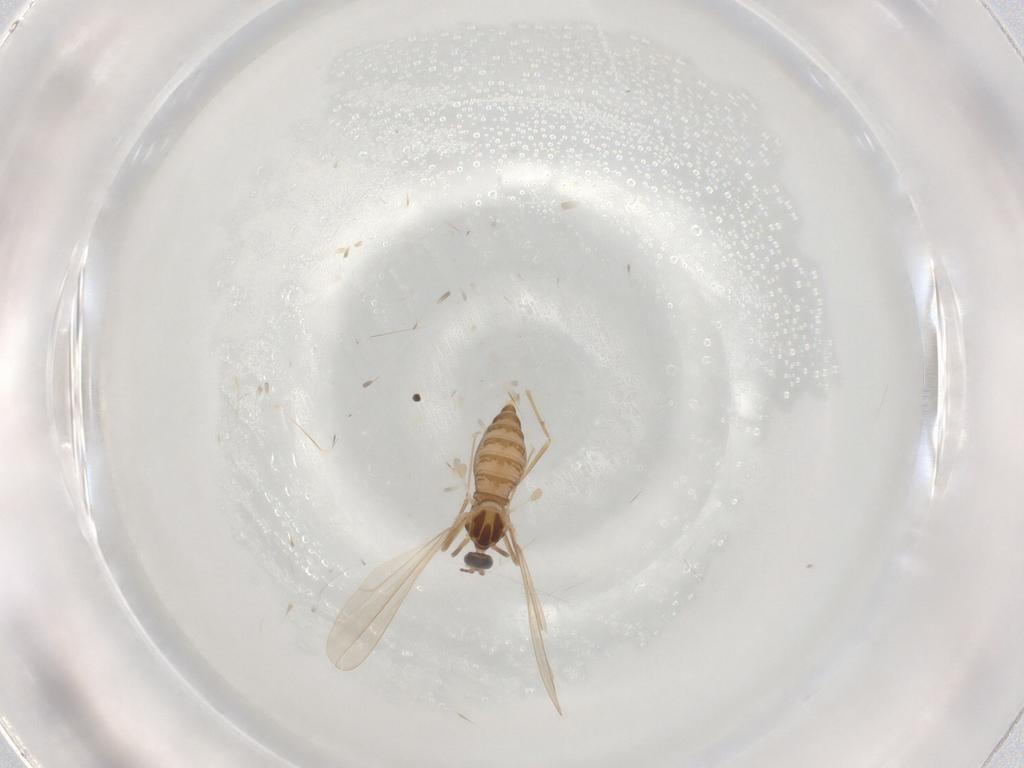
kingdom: Animalia
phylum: Arthropoda
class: Insecta
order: Diptera
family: Cecidomyiidae
